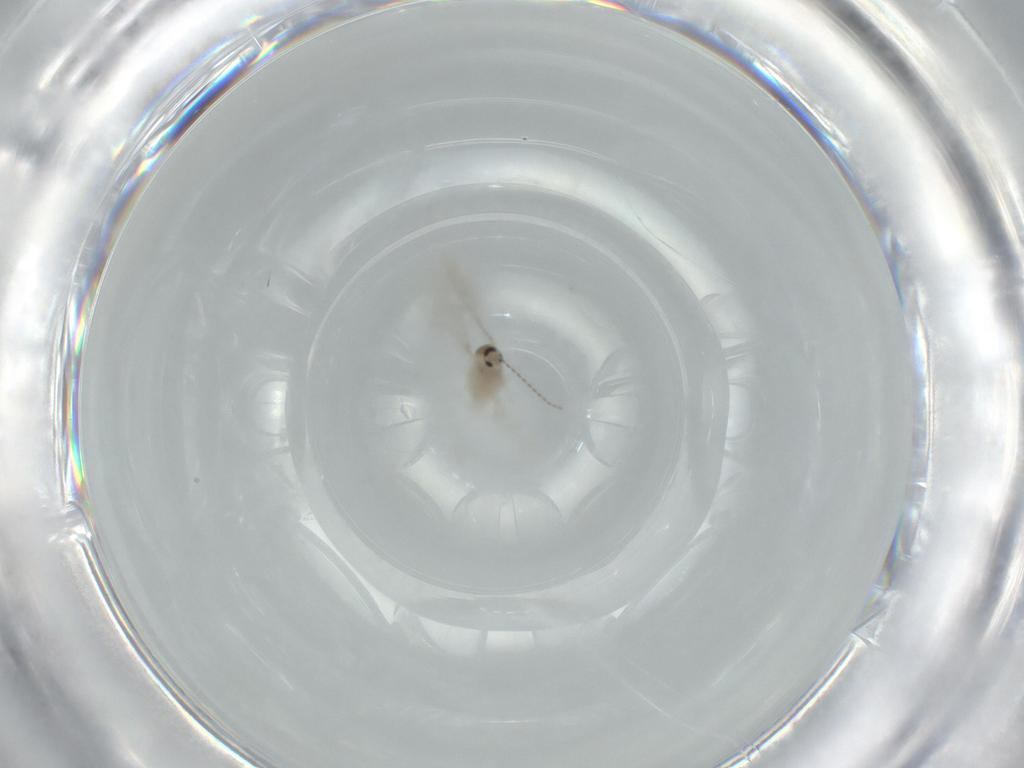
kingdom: Animalia
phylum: Arthropoda
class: Insecta
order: Diptera
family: Cecidomyiidae
